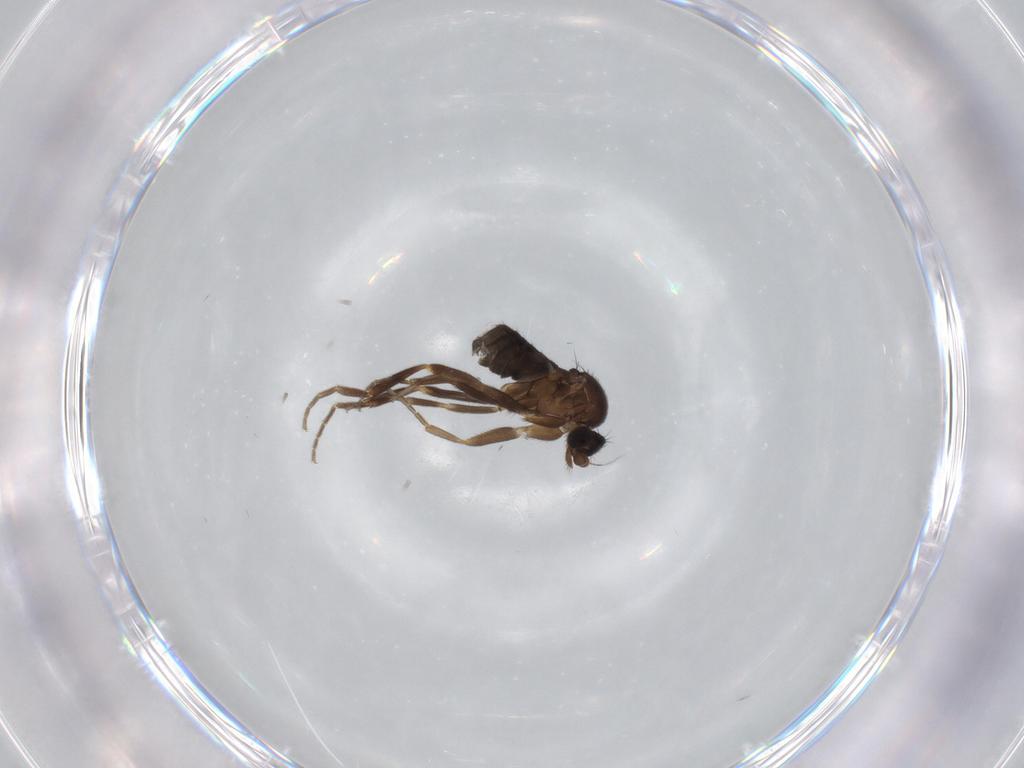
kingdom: Animalia
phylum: Arthropoda
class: Insecta
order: Diptera
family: Phoridae
